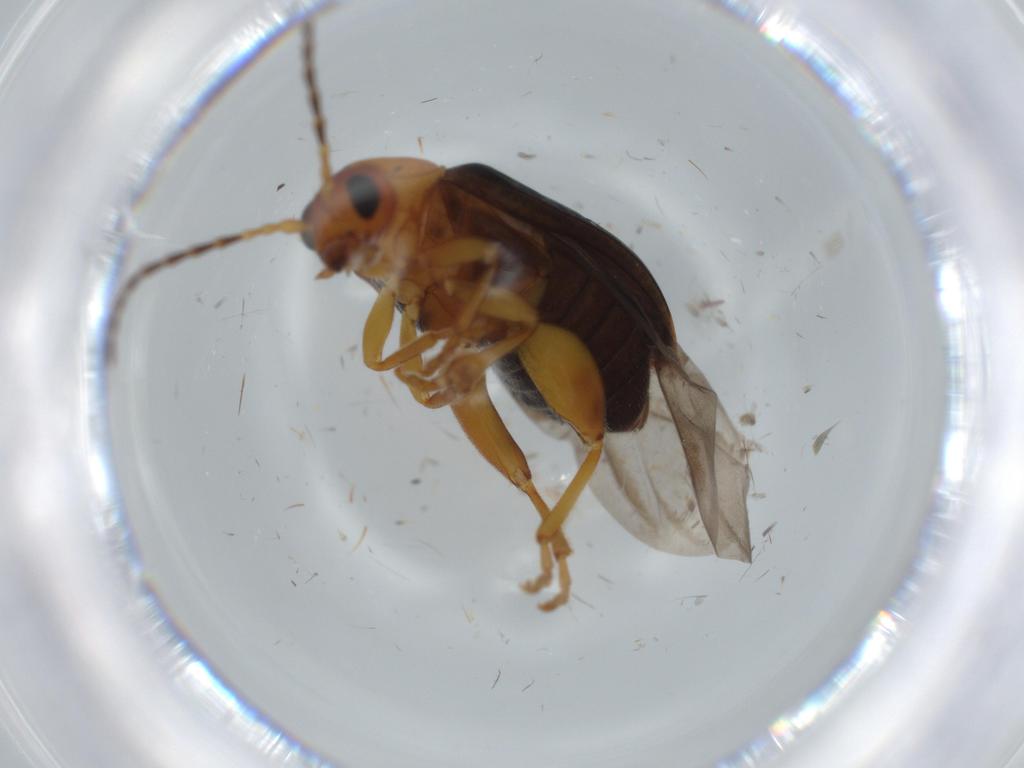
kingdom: Animalia
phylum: Arthropoda
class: Insecta
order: Coleoptera
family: Chrysomelidae
